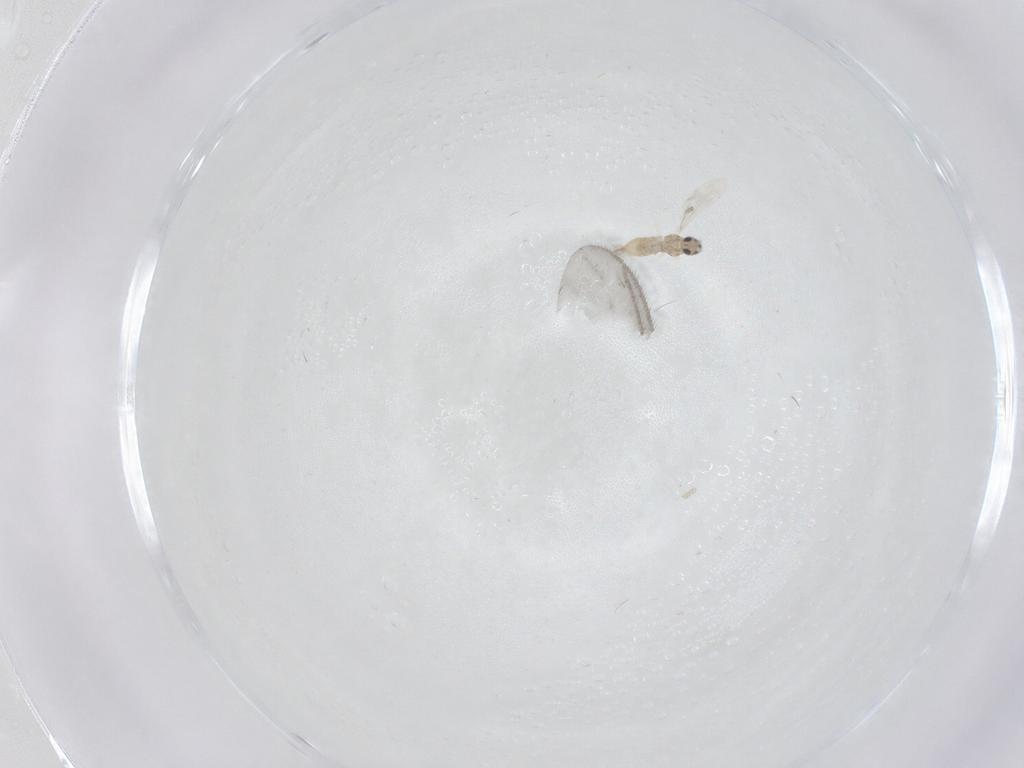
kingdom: Animalia
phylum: Arthropoda
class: Insecta
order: Diptera
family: Cecidomyiidae
